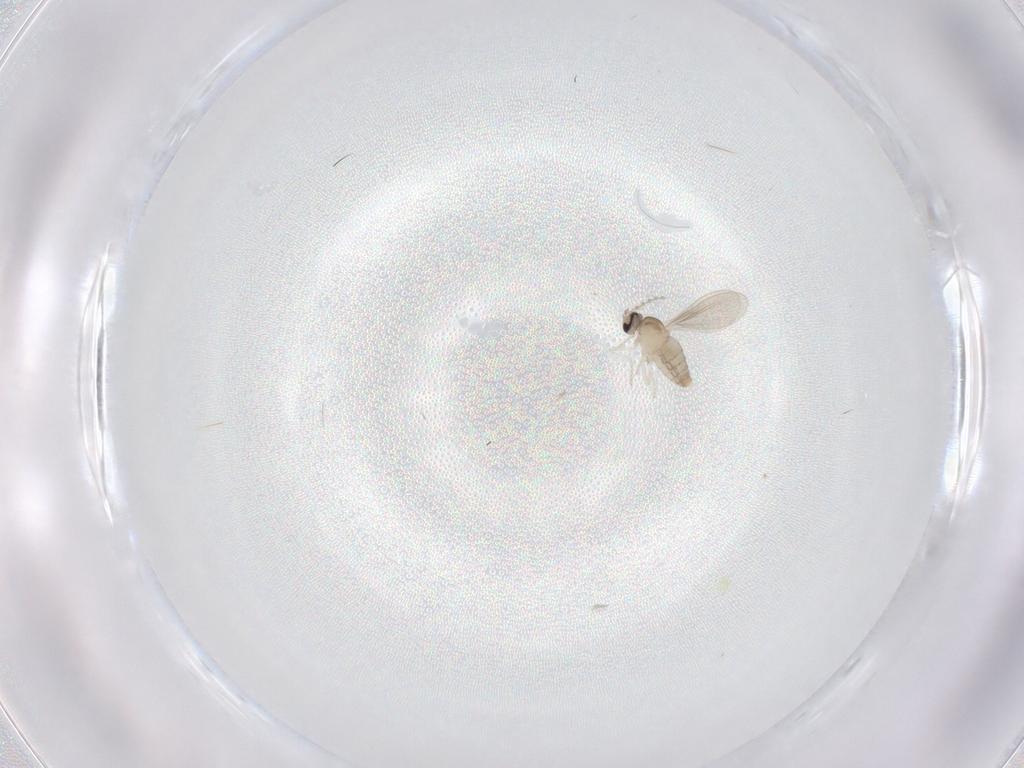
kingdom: Animalia
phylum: Arthropoda
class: Insecta
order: Diptera
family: Cecidomyiidae
